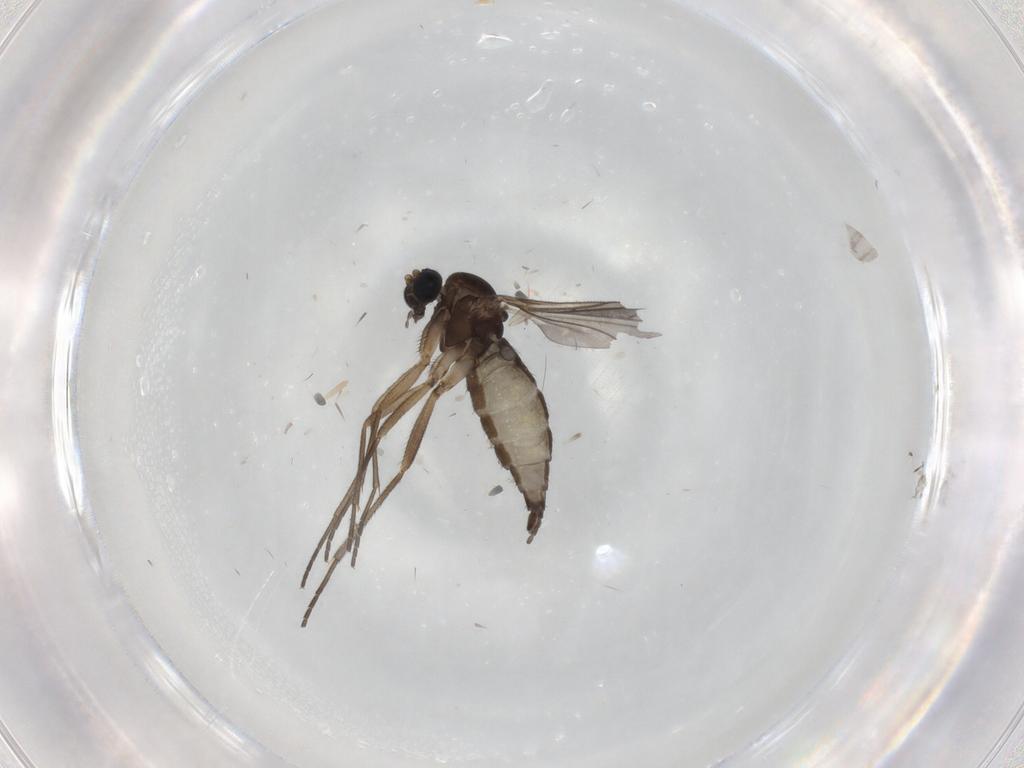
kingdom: Animalia
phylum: Arthropoda
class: Insecta
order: Diptera
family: Sciaridae
